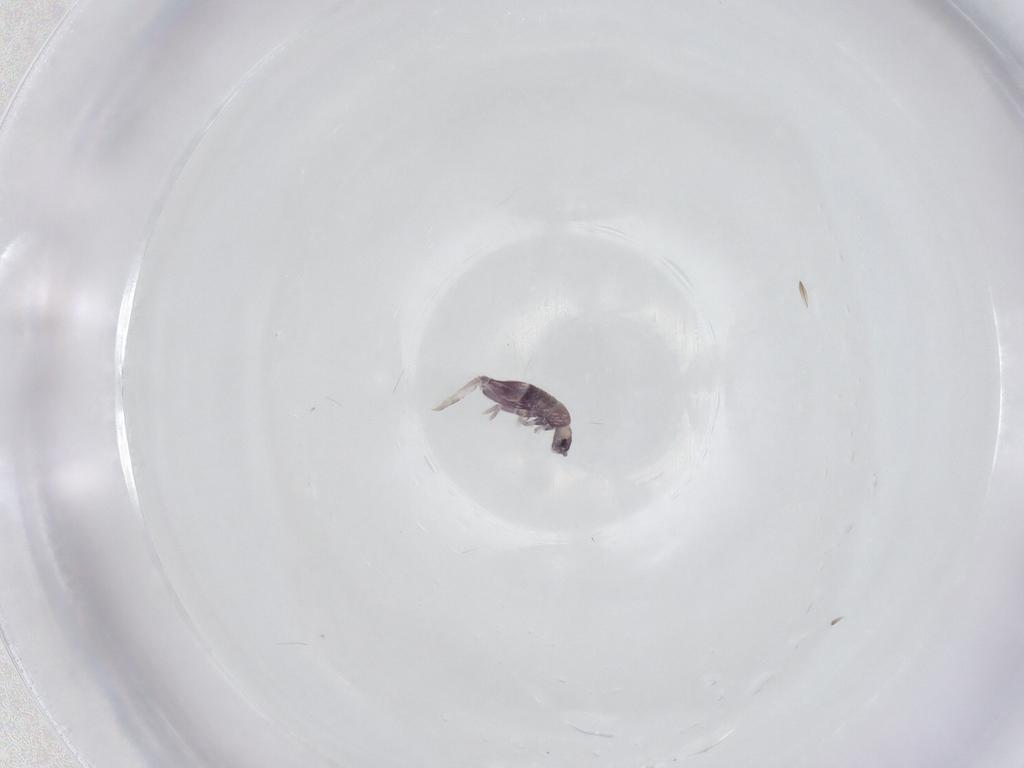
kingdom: Animalia
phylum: Arthropoda
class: Collembola
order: Entomobryomorpha
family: Entomobryidae
